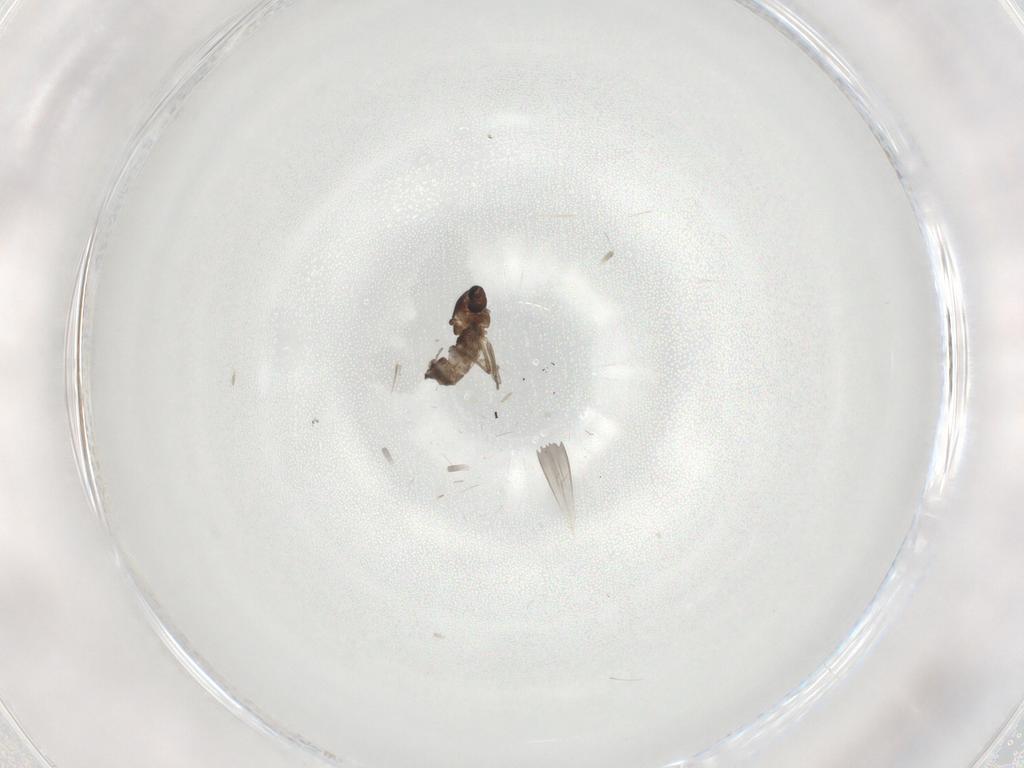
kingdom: Animalia
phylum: Arthropoda
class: Insecta
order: Diptera
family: Chironomidae
